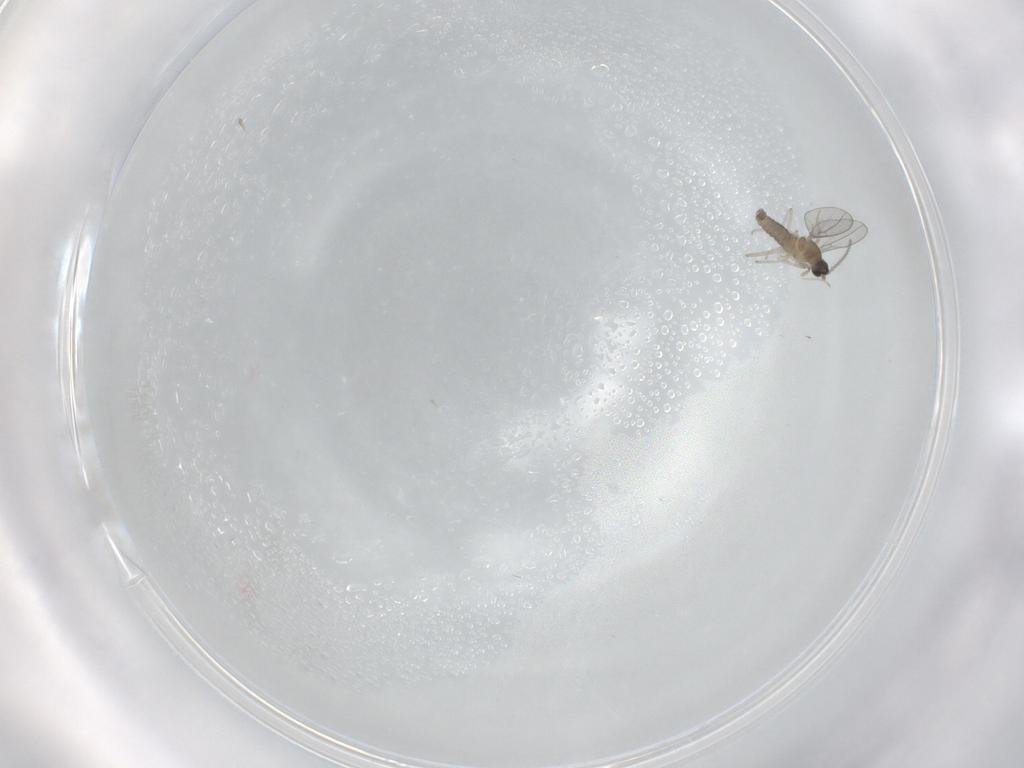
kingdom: Animalia
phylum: Arthropoda
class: Insecta
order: Diptera
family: Cecidomyiidae
